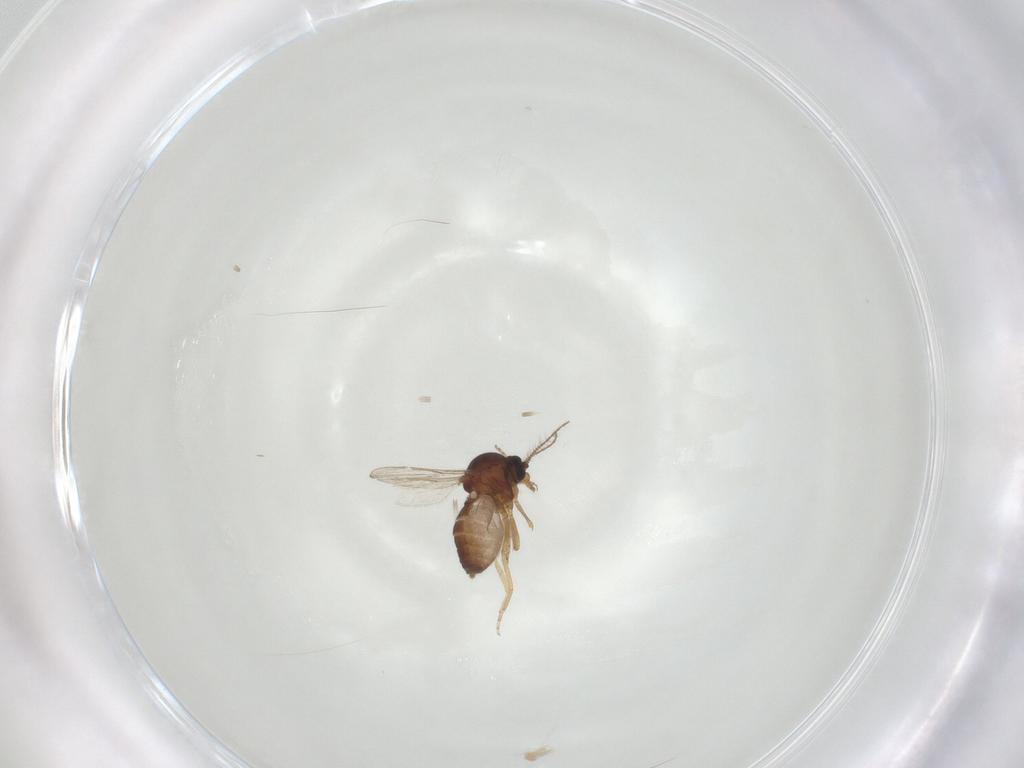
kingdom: Animalia
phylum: Arthropoda
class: Insecta
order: Diptera
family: Ceratopogonidae
